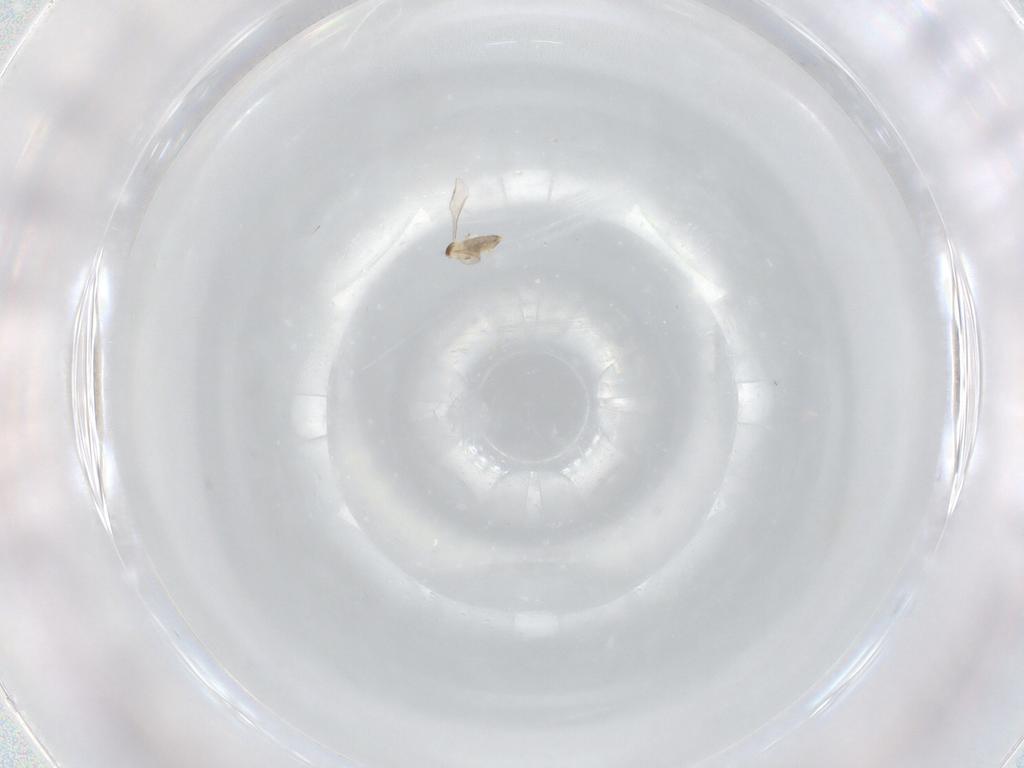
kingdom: Animalia
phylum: Arthropoda
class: Insecta
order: Diptera
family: Cecidomyiidae
